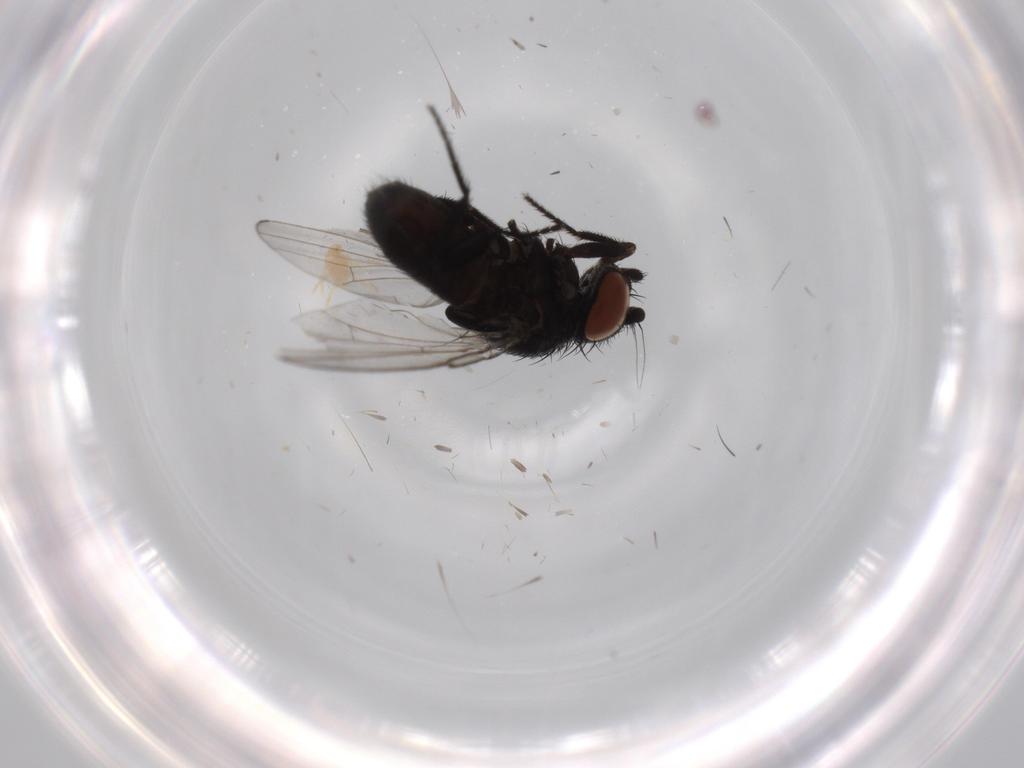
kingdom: Animalia
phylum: Arthropoda
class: Insecta
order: Diptera
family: Milichiidae
